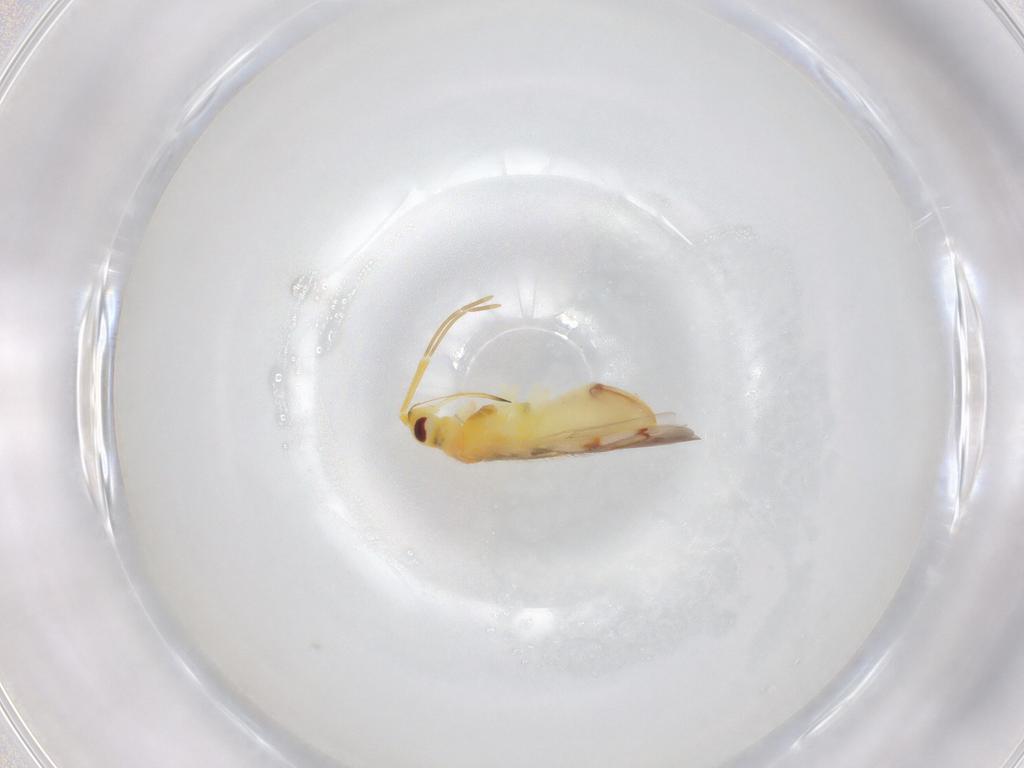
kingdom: Animalia
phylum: Arthropoda
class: Insecta
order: Hemiptera
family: Miridae
